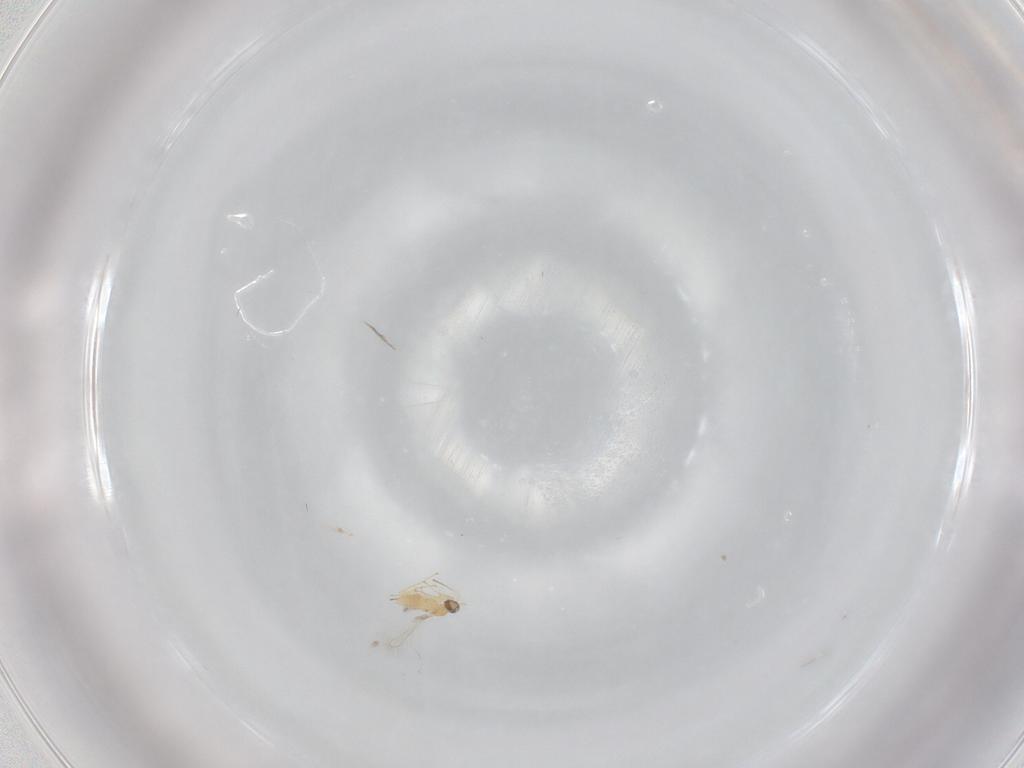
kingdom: Animalia
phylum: Arthropoda
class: Insecta
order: Hymenoptera
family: Mymaridae
